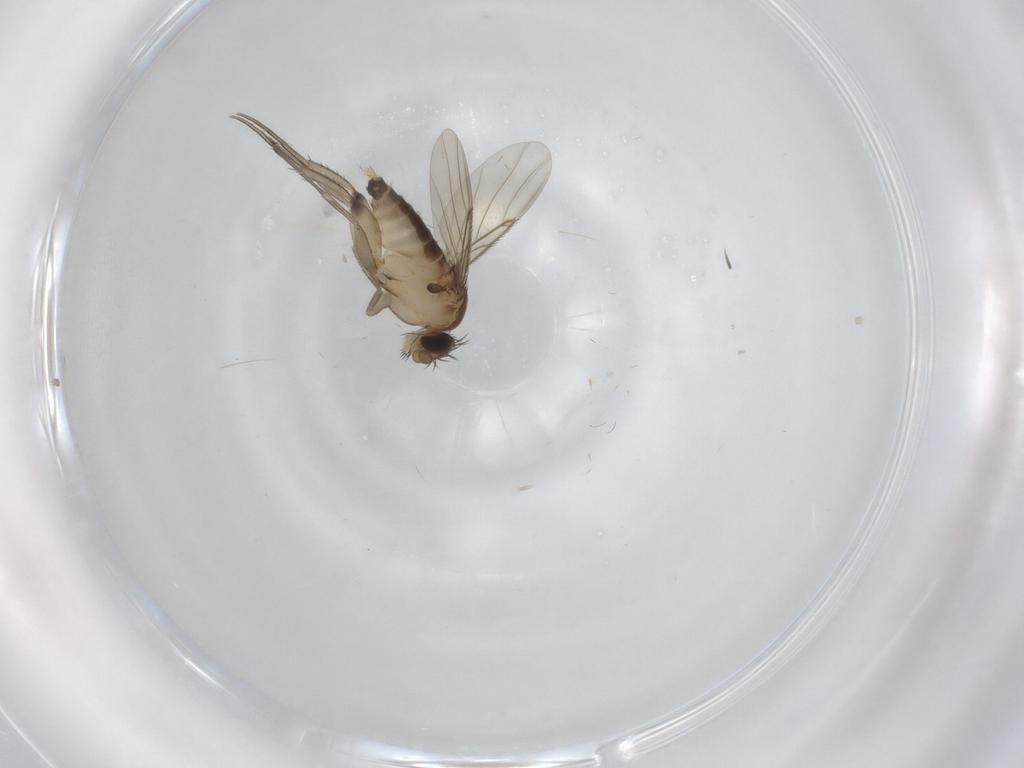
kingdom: Animalia
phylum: Arthropoda
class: Insecta
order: Diptera
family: Phoridae
